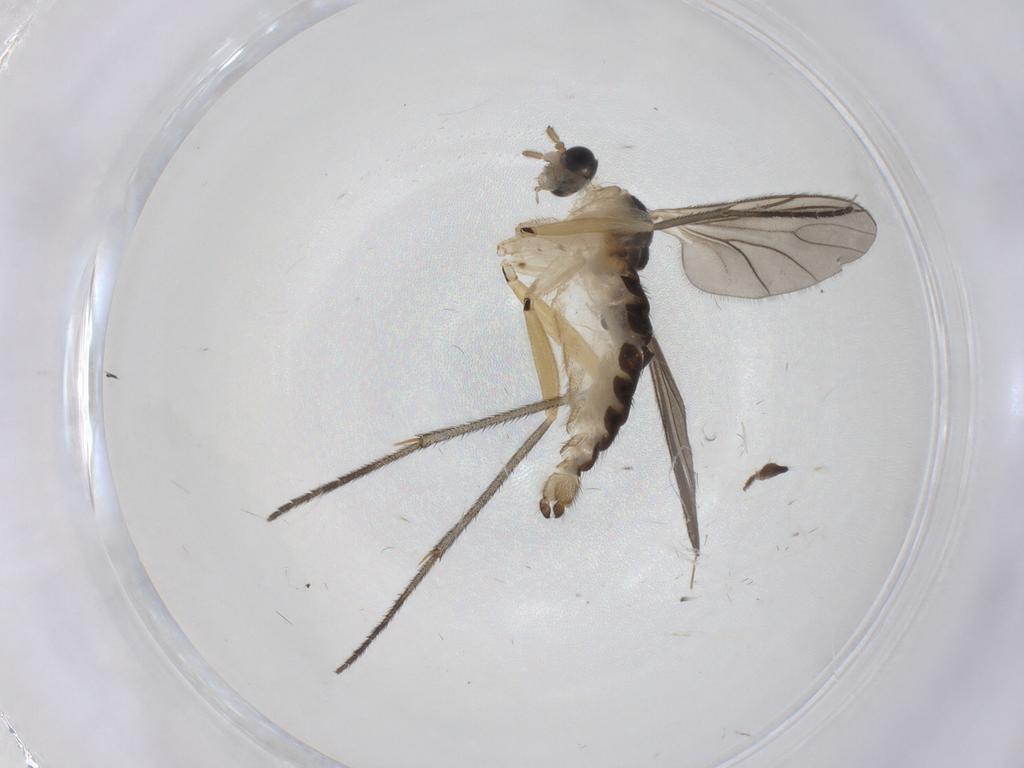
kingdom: Animalia
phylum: Arthropoda
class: Insecta
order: Diptera
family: Sciaridae
